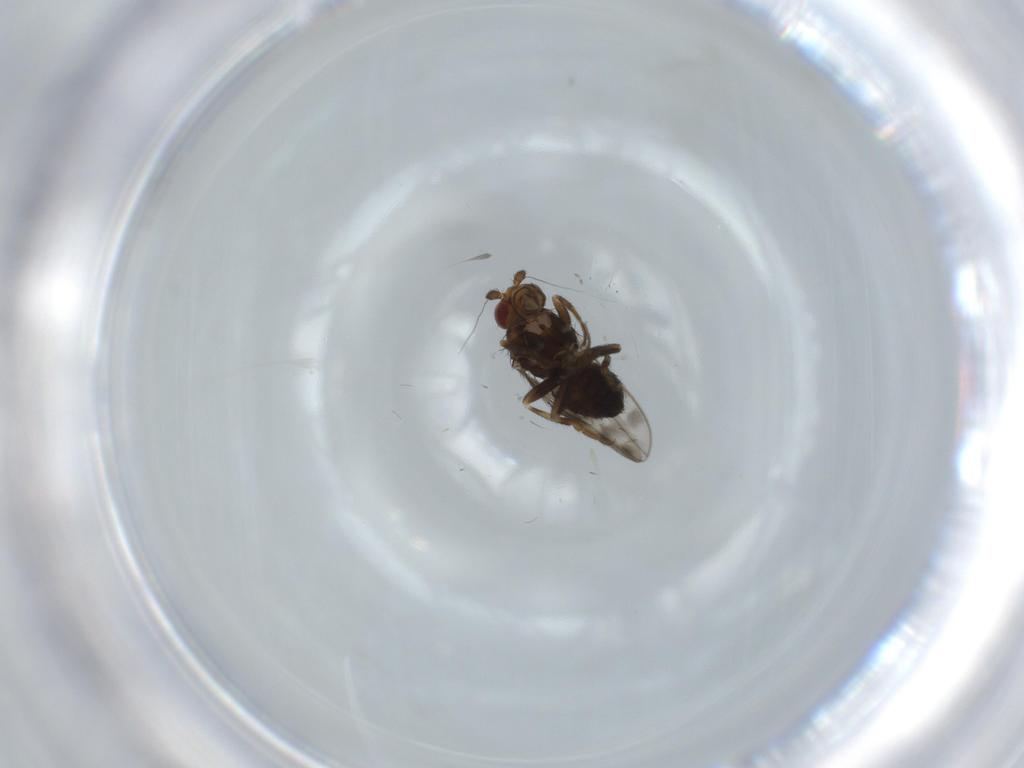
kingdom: Animalia
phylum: Arthropoda
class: Insecta
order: Diptera
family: Sphaeroceridae
